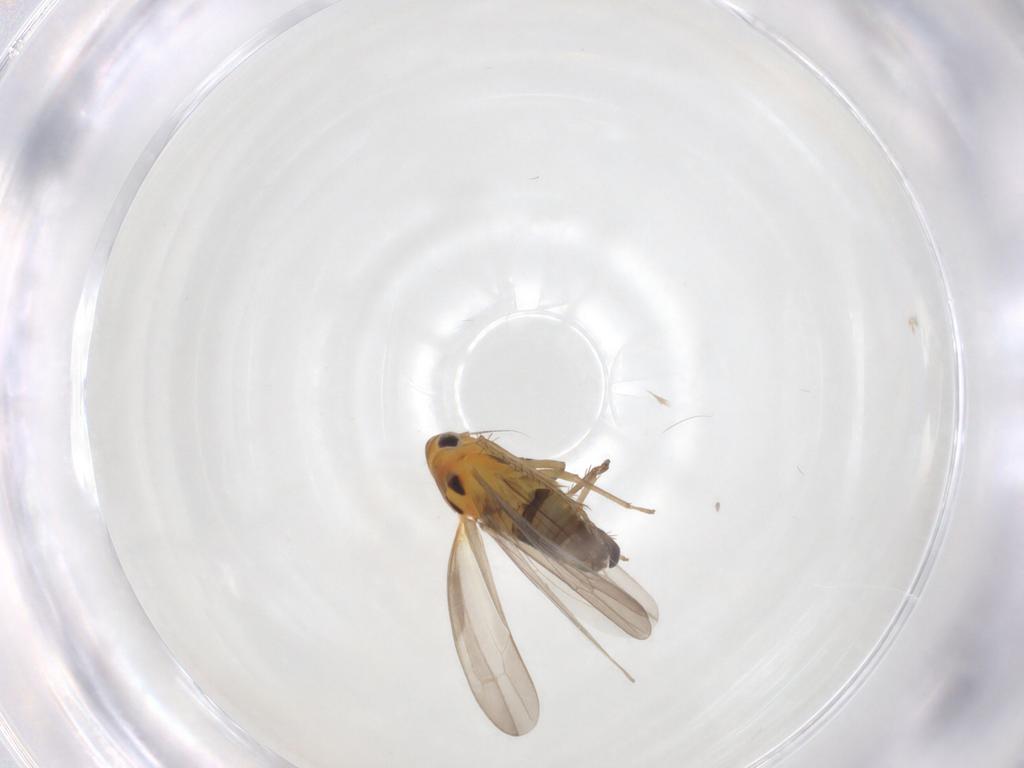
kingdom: Animalia
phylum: Arthropoda
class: Insecta
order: Hemiptera
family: Cicadellidae
